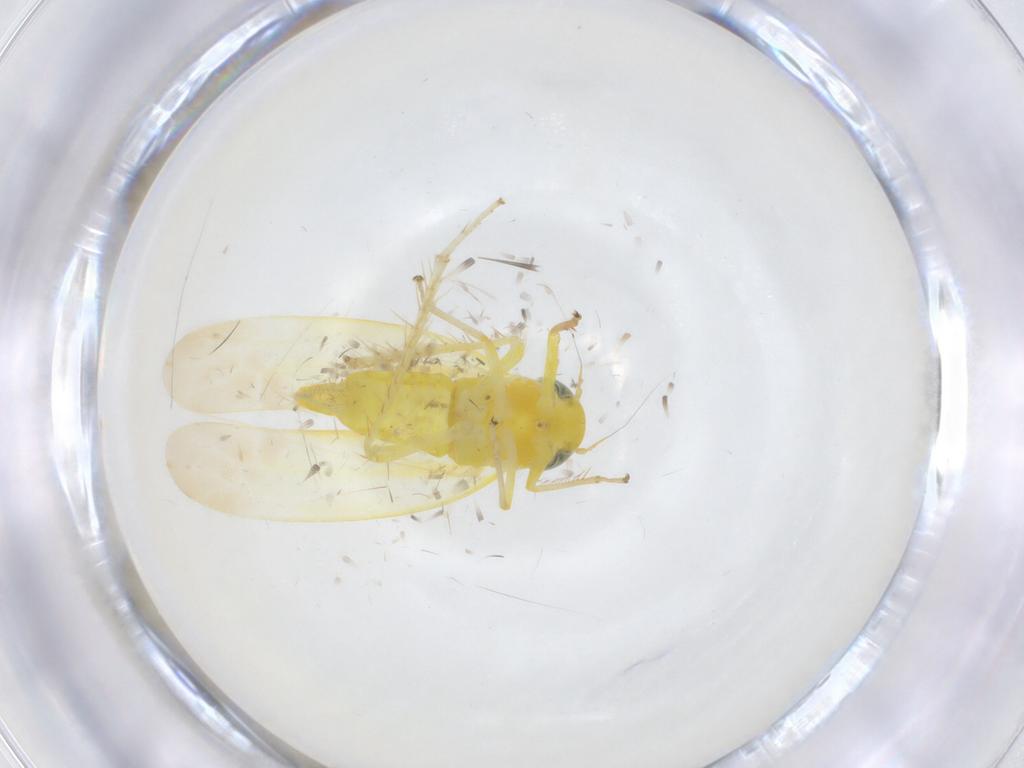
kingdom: Animalia
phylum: Arthropoda
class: Insecta
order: Hemiptera
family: Cicadellidae
